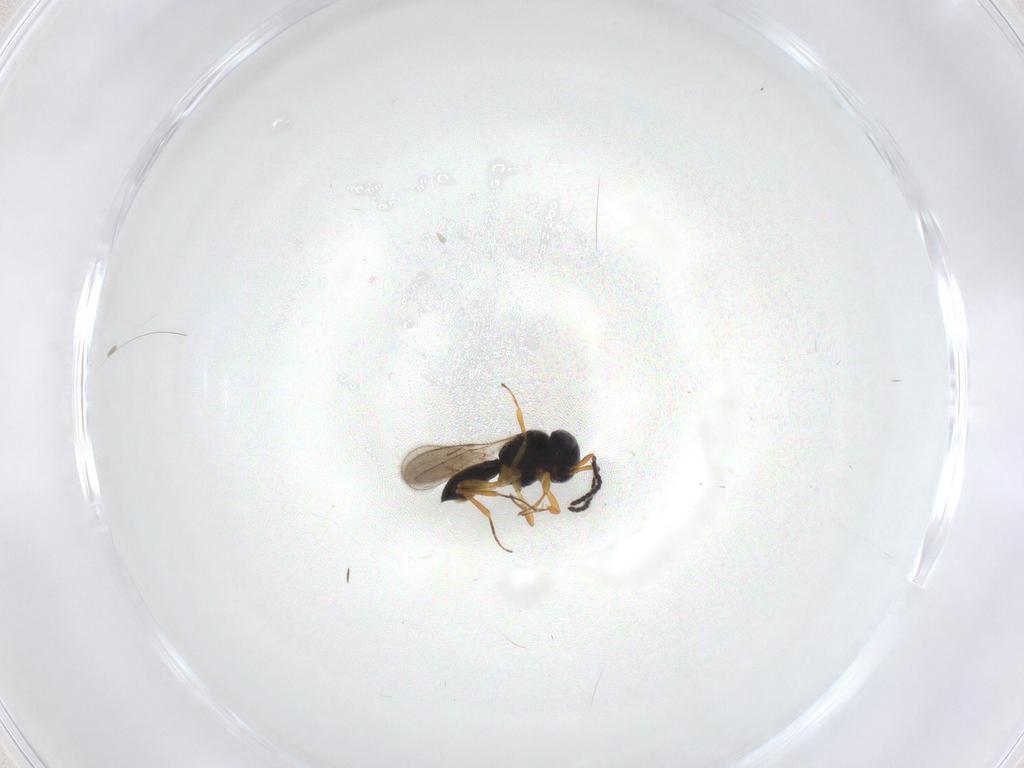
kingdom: Animalia
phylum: Arthropoda
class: Insecta
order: Hymenoptera
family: Scelionidae
